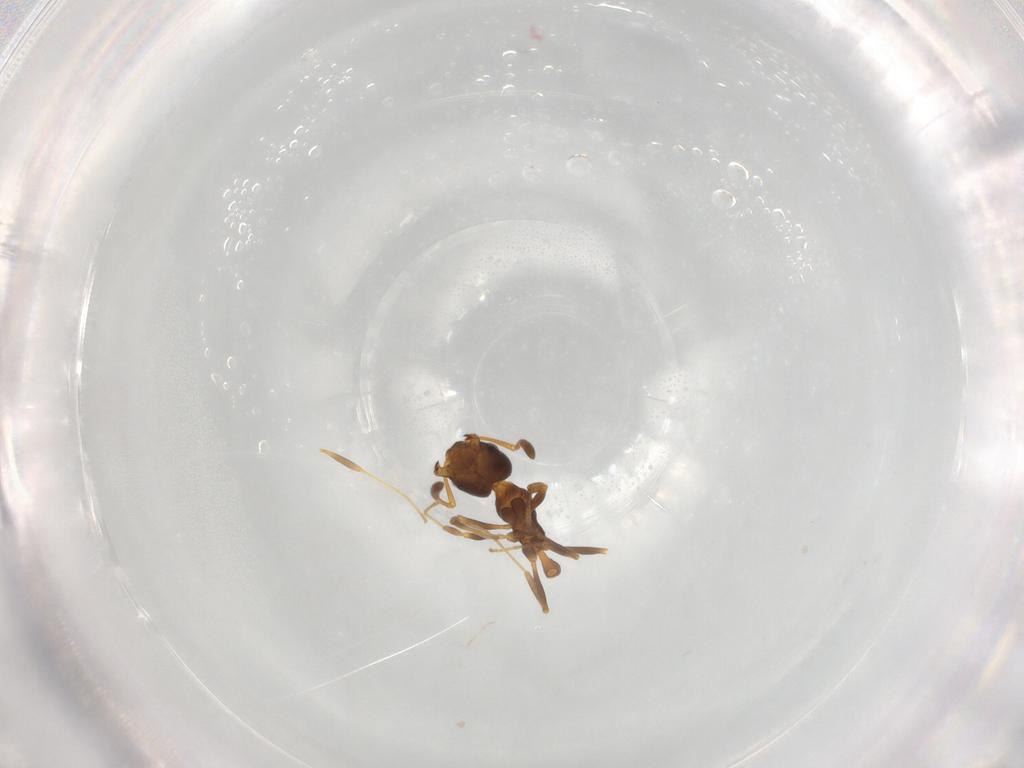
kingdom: Animalia
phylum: Arthropoda
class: Insecta
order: Hymenoptera
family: Formicidae
